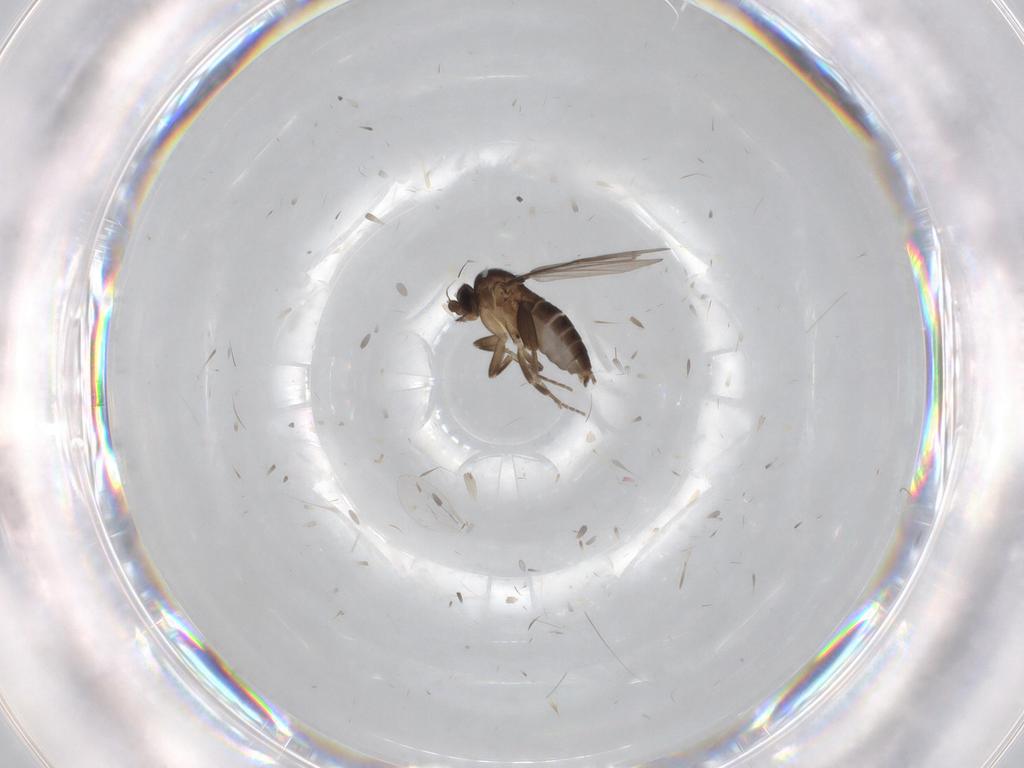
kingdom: Animalia
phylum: Arthropoda
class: Insecta
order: Diptera
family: Phoridae
